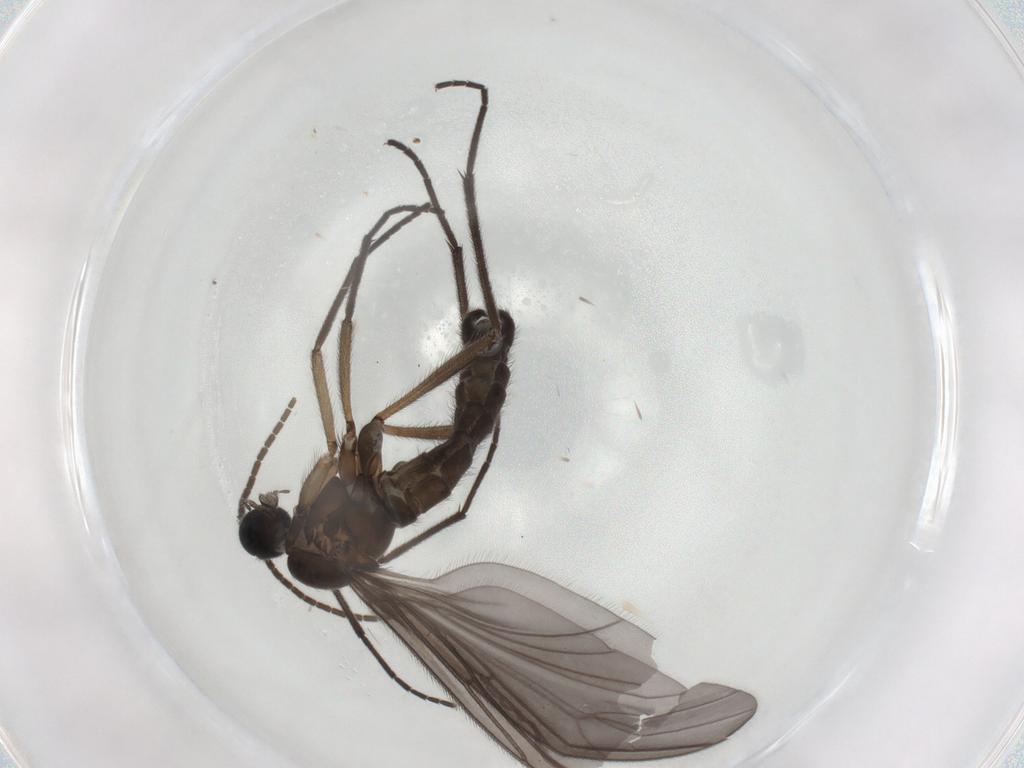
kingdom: Animalia
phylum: Arthropoda
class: Insecta
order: Diptera
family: Sciaridae
